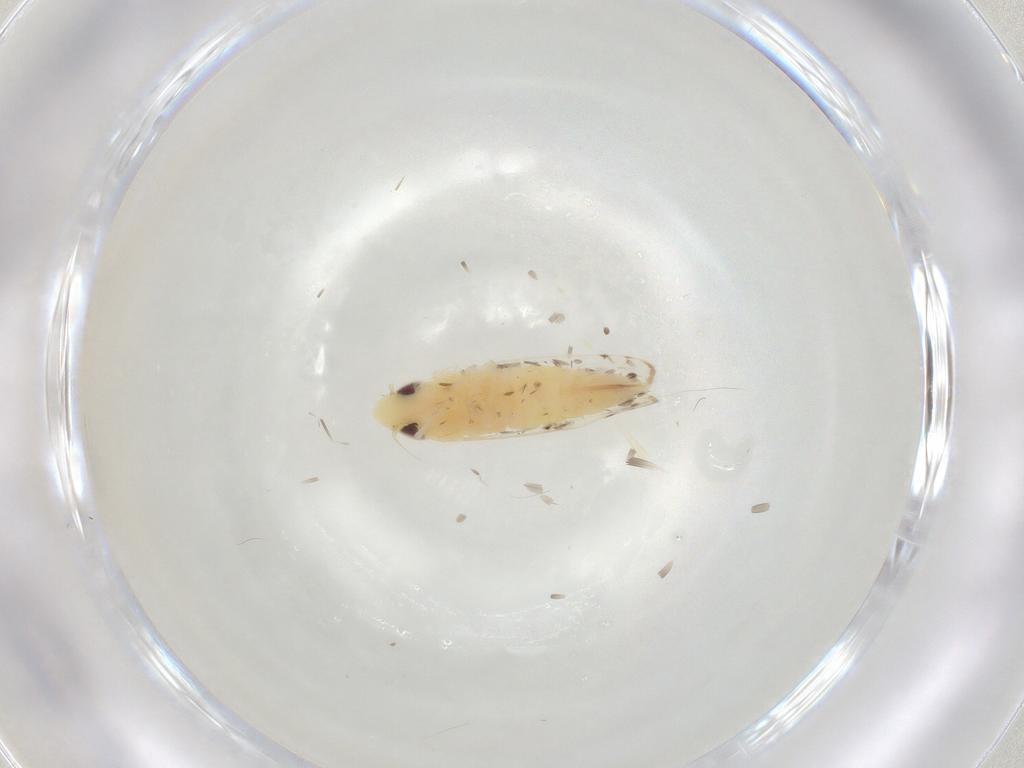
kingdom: Animalia
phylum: Arthropoda
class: Insecta
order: Hemiptera
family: Cicadellidae
